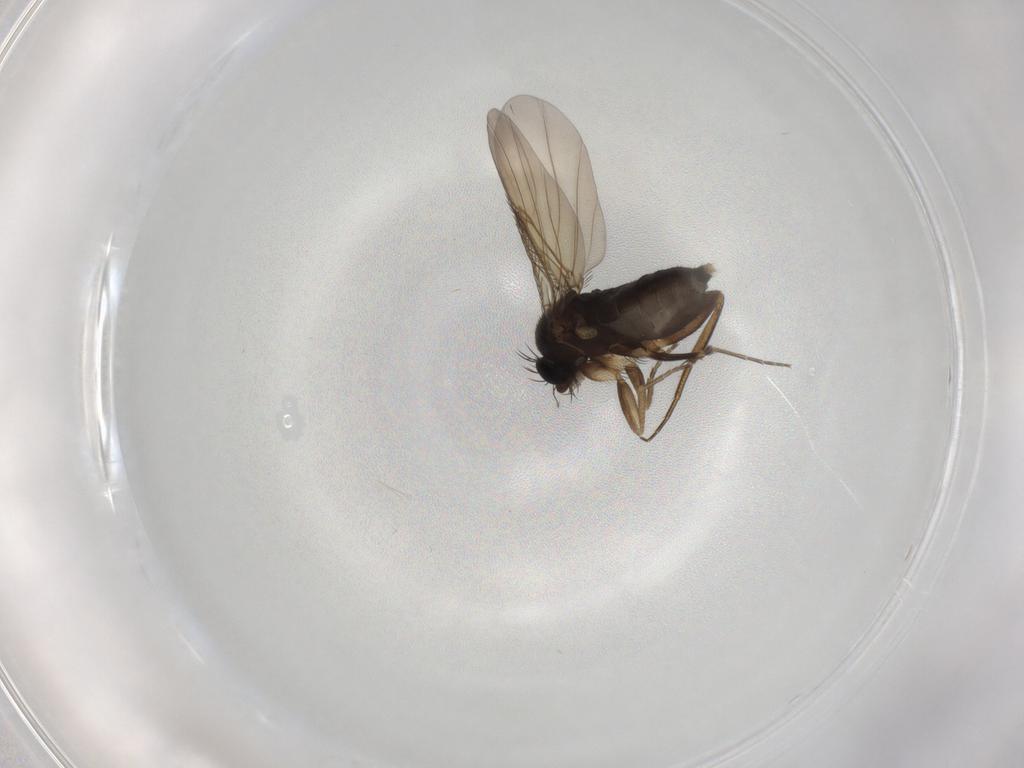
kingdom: Animalia
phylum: Arthropoda
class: Insecta
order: Diptera
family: Phoridae
